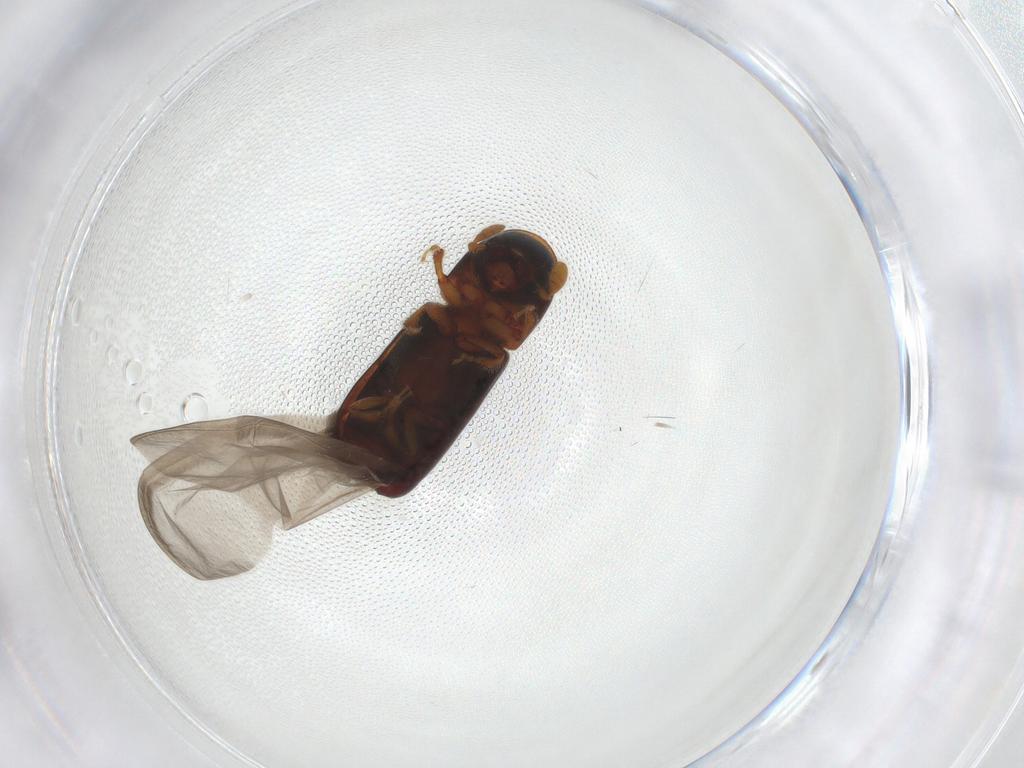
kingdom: Animalia
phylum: Arthropoda
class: Insecta
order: Coleoptera
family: Curculionidae
